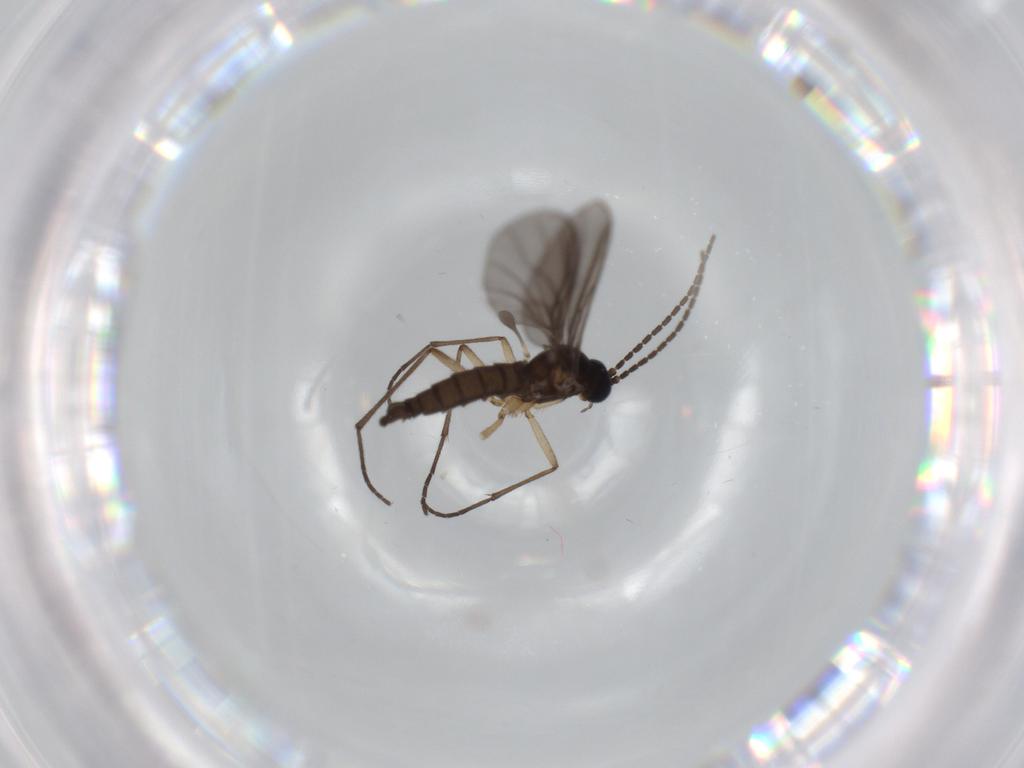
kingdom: Animalia
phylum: Arthropoda
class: Insecta
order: Diptera
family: Sciaridae
